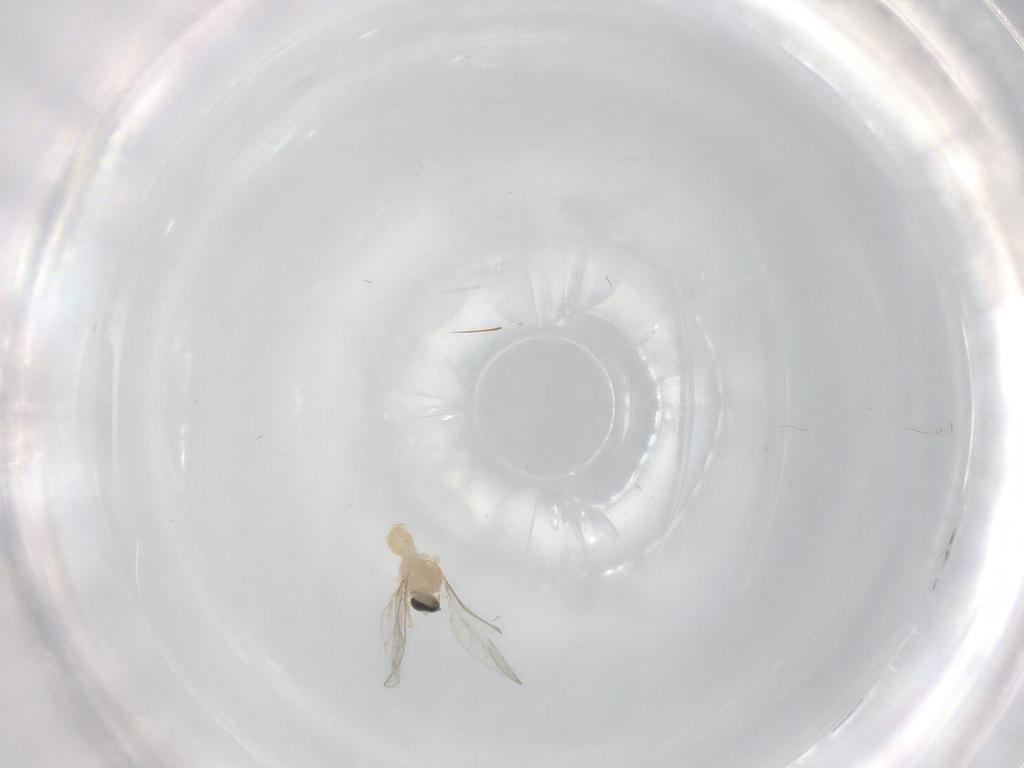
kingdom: Animalia
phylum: Arthropoda
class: Insecta
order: Diptera
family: Cecidomyiidae
